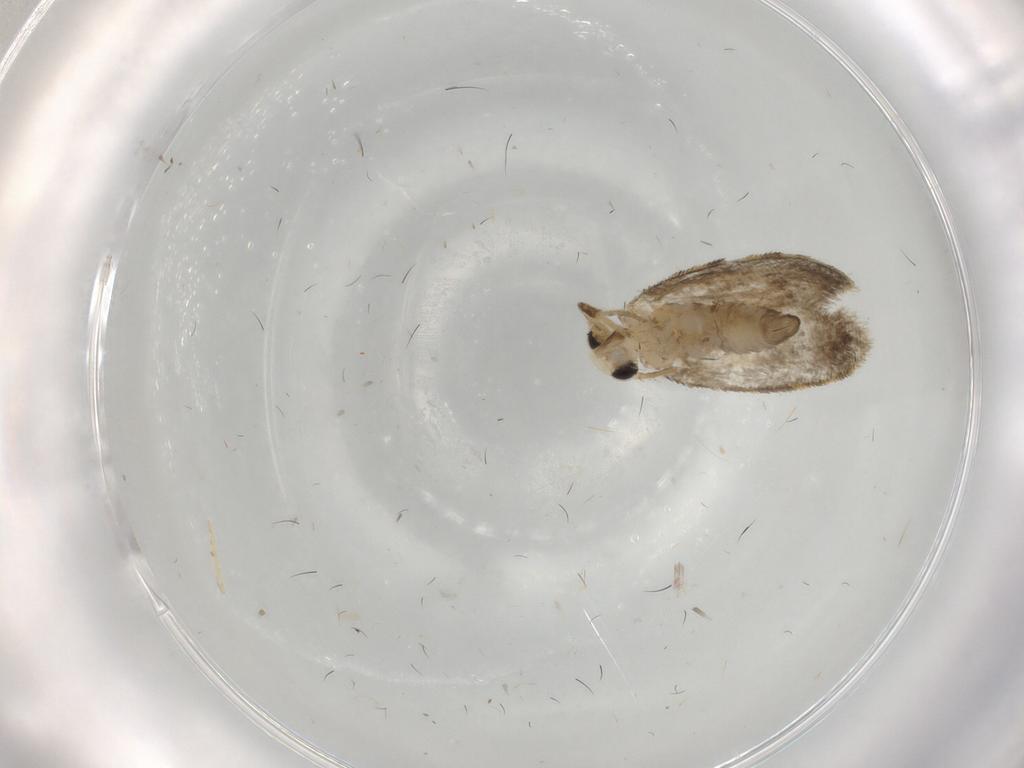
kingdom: Animalia
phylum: Arthropoda
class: Insecta
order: Lepidoptera
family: Psychidae
